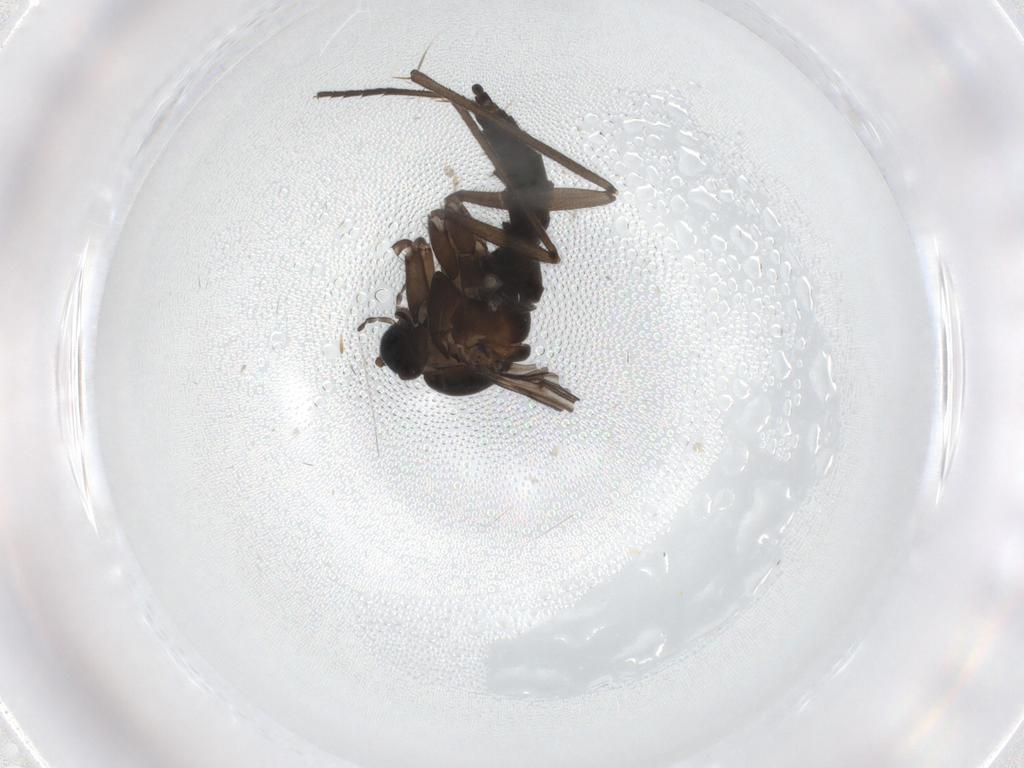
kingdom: Animalia
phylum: Arthropoda
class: Insecta
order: Diptera
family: Sciaridae
